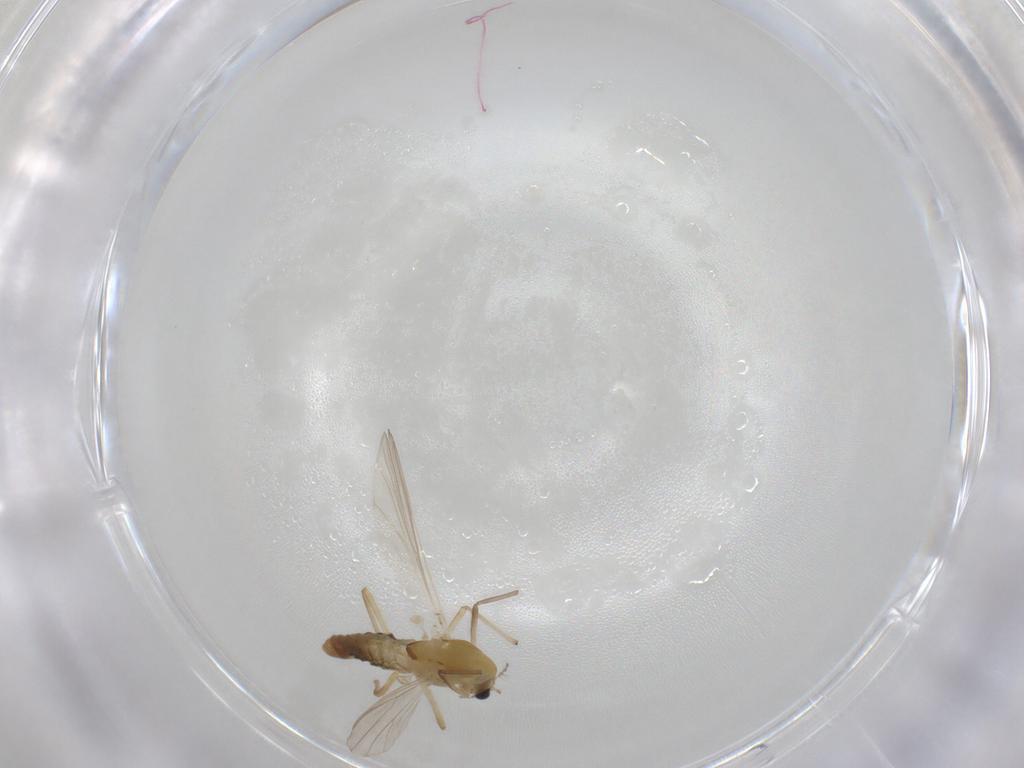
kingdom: Animalia
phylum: Arthropoda
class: Insecta
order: Diptera
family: Chironomidae
